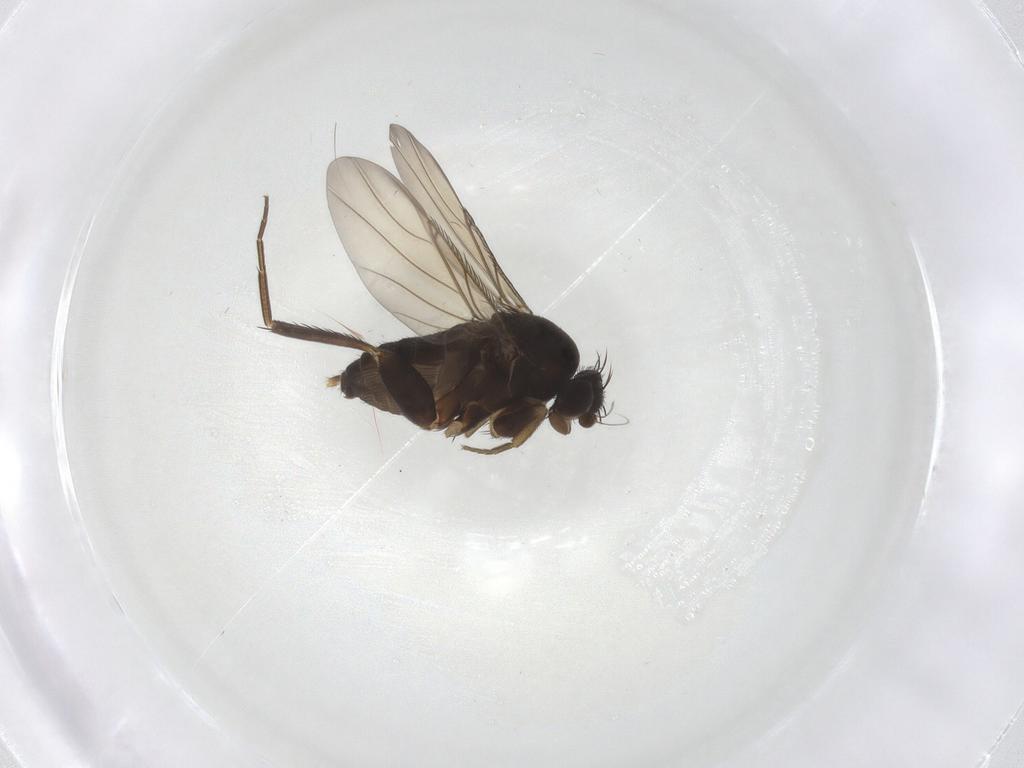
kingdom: Animalia
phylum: Arthropoda
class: Insecta
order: Diptera
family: Phoridae
